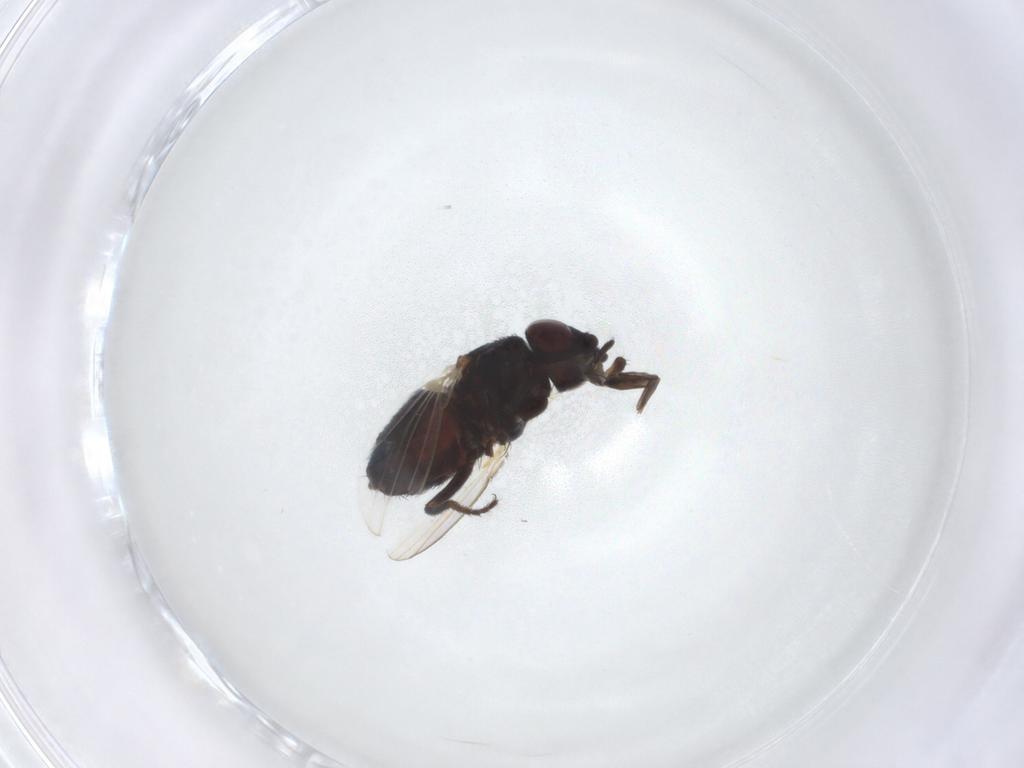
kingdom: Animalia
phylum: Arthropoda
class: Insecta
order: Diptera
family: Milichiidae
